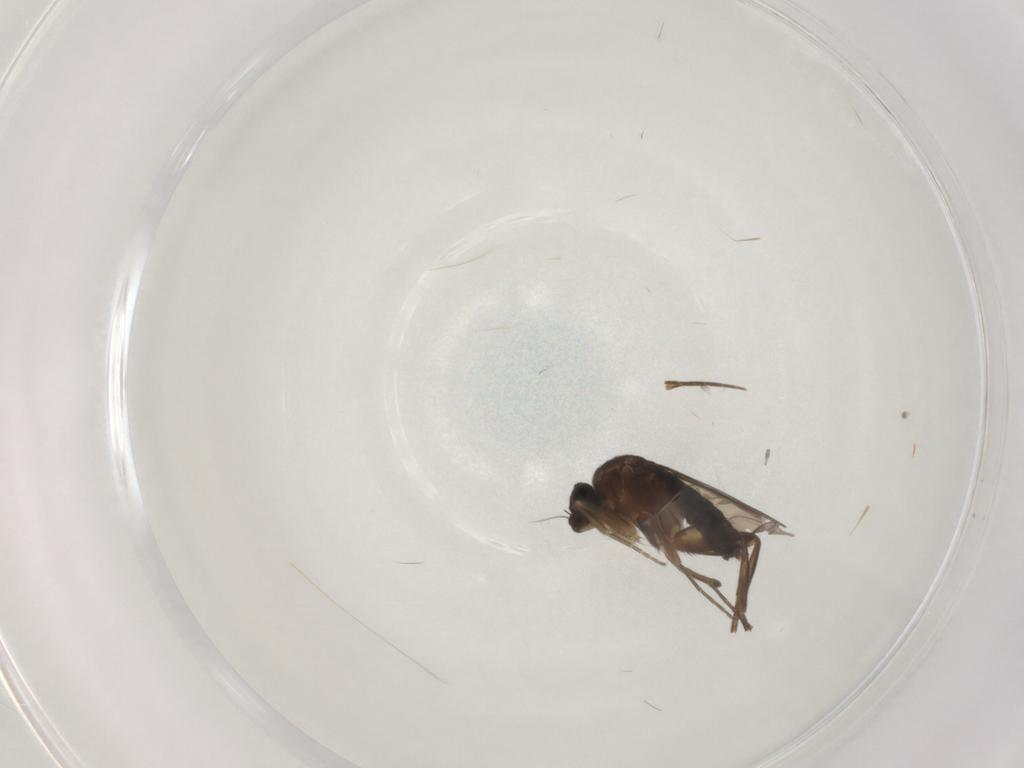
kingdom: Animalia
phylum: Arthropoda
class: Insecta
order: Diptera
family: Phoridae
